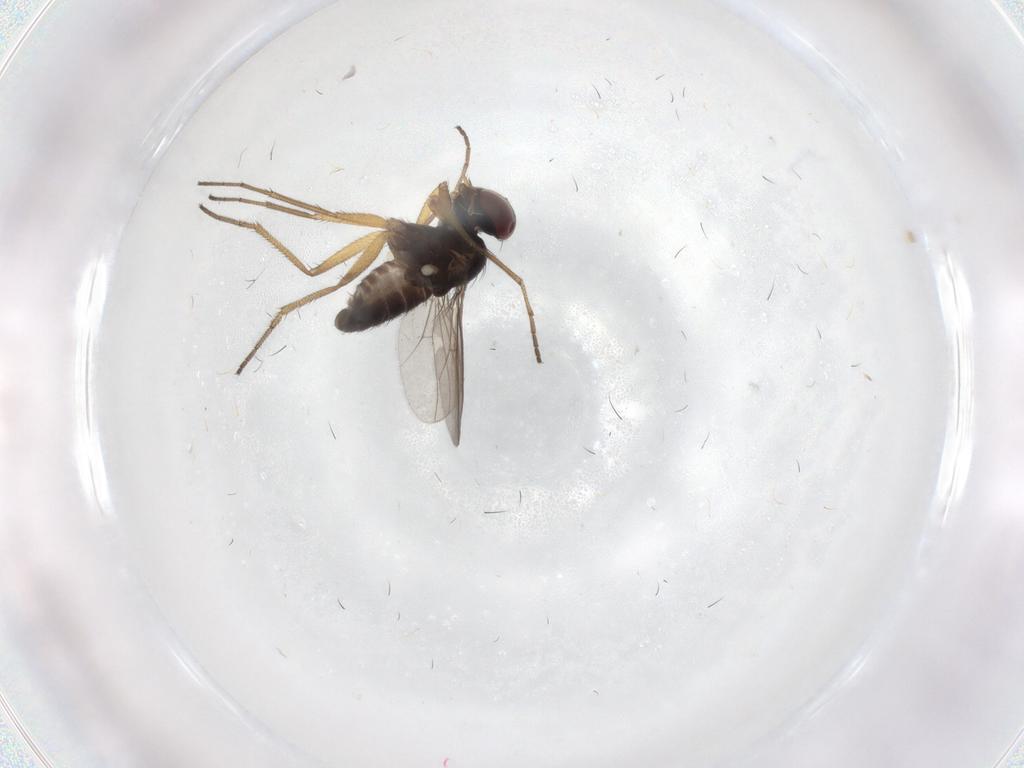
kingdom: Animalia
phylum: Arthropoda
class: Insecta
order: Diptera
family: Dolichopodidae
